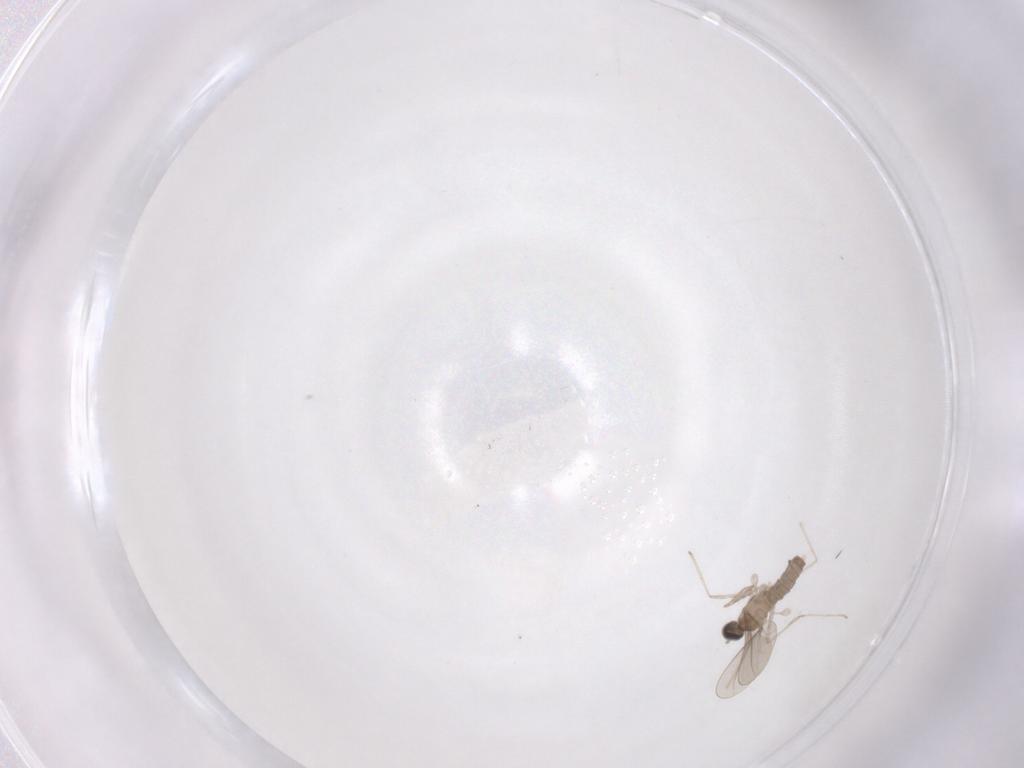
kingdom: Animalia
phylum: Arthropoda
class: Insecta
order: Diptera
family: Cecidomyiidae
